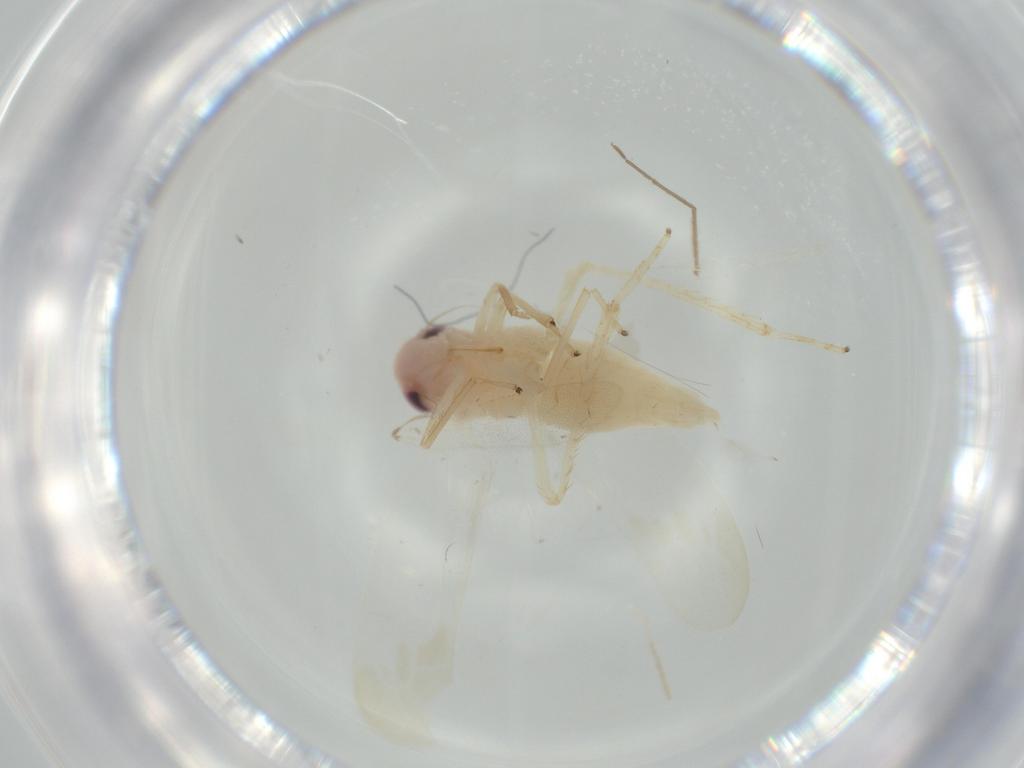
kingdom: Animalia
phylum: Arthropoda
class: Insecta
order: Hemiptera
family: Cicadellidae
